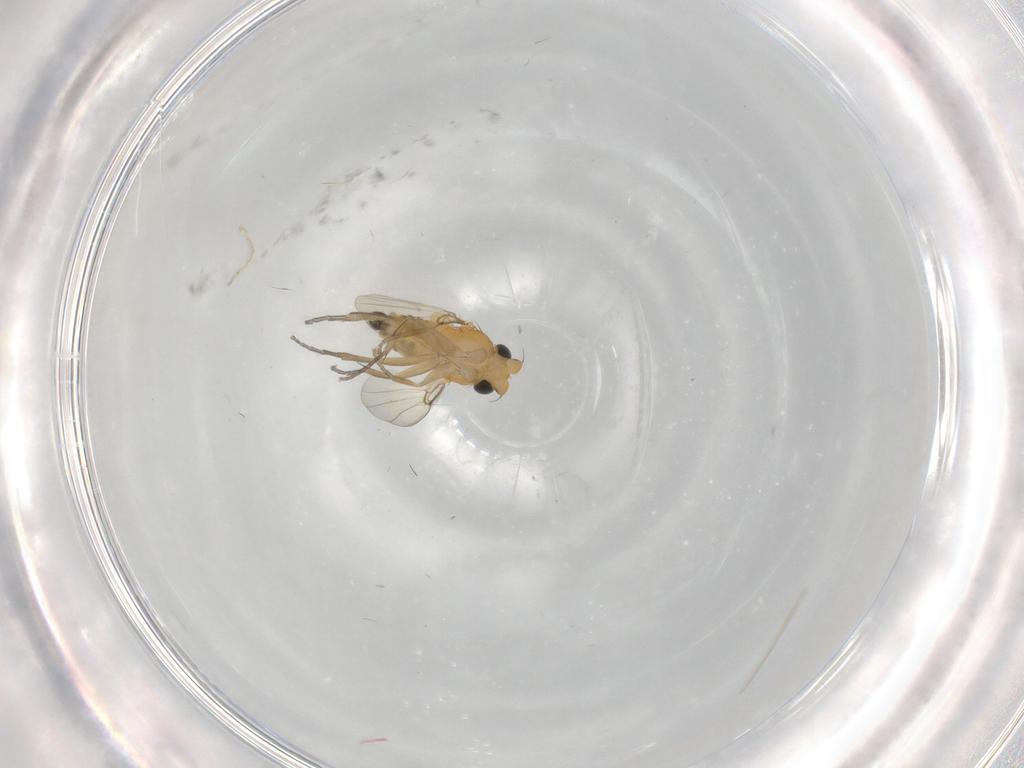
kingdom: Animalia
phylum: Arthropoda
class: Insecta
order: Diptera
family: Phoridae
